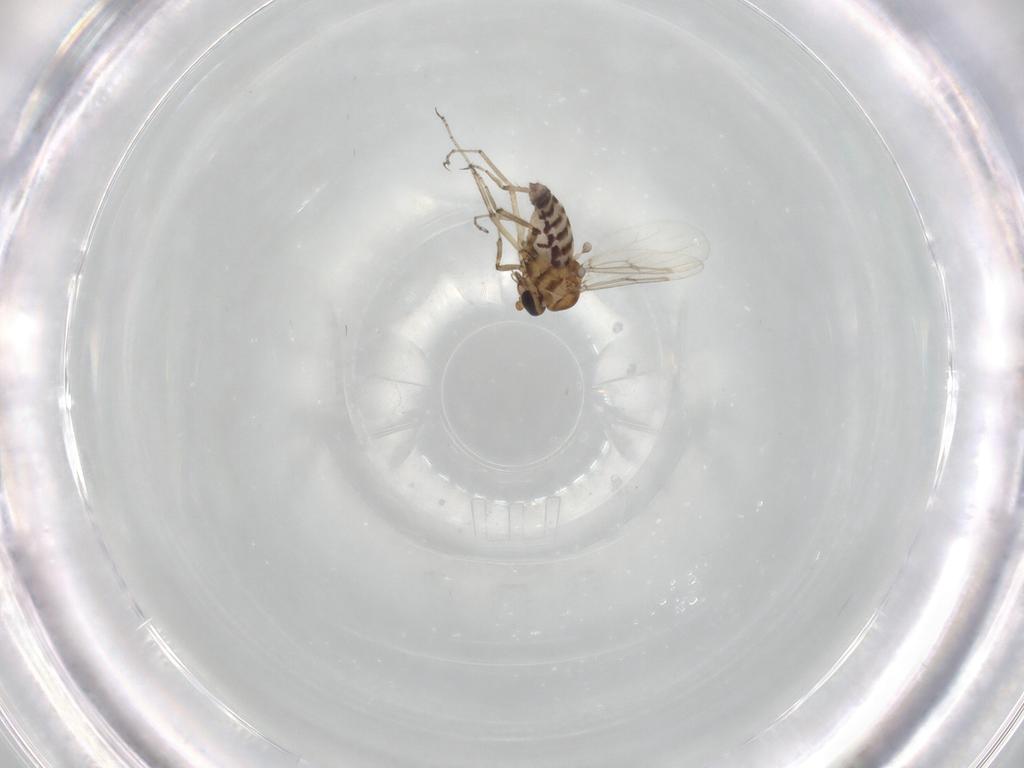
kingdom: Animalia
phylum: Arthropoda
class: Insecta
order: Diptera
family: Ceratopogonidae
